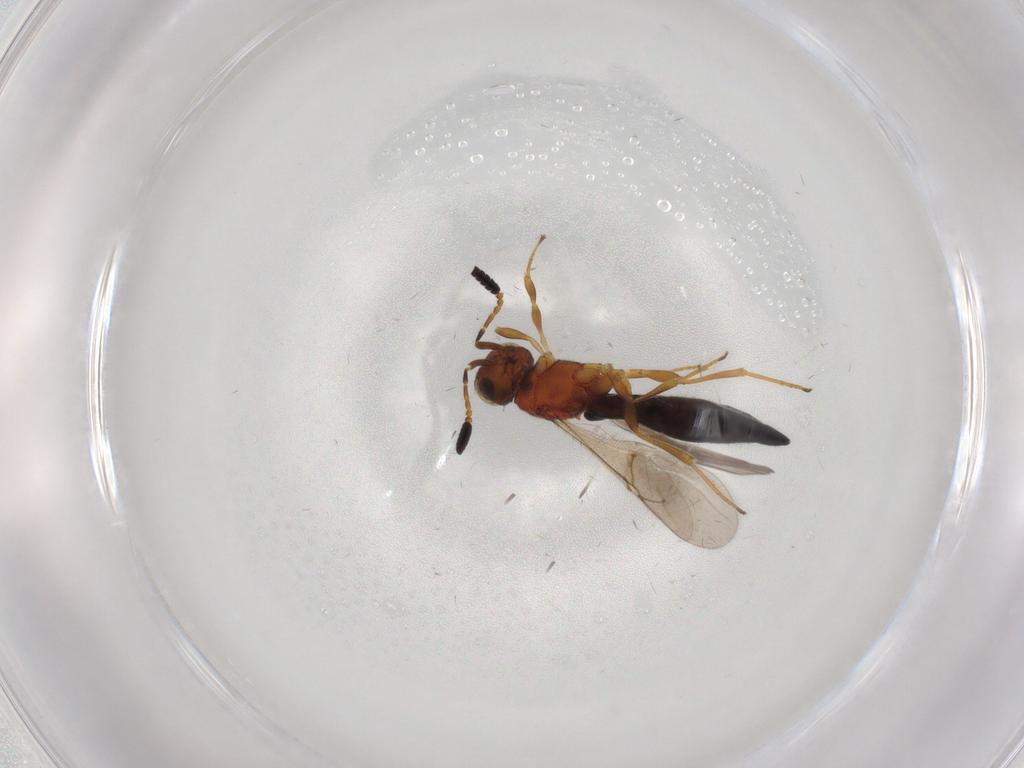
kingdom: Animalia
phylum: Arthropoda
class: Insecta
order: Hymenoptera
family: Scelionidae
